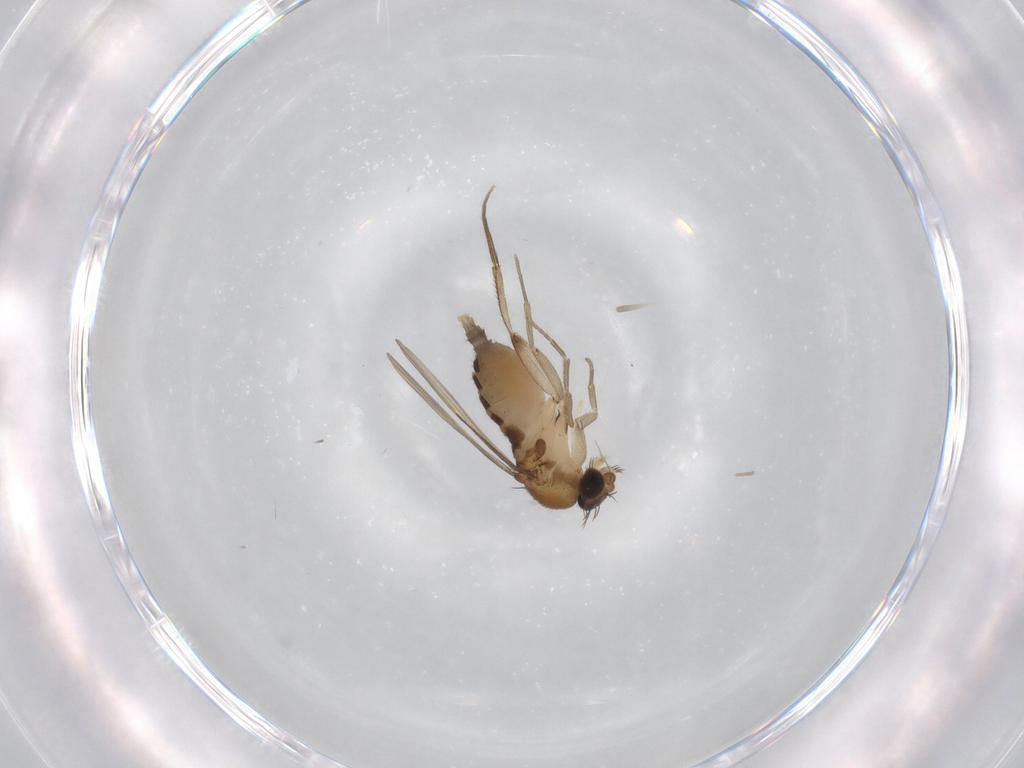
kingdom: Animalia
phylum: Arthropoda
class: Insecta
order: Diptera
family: Phoridae
